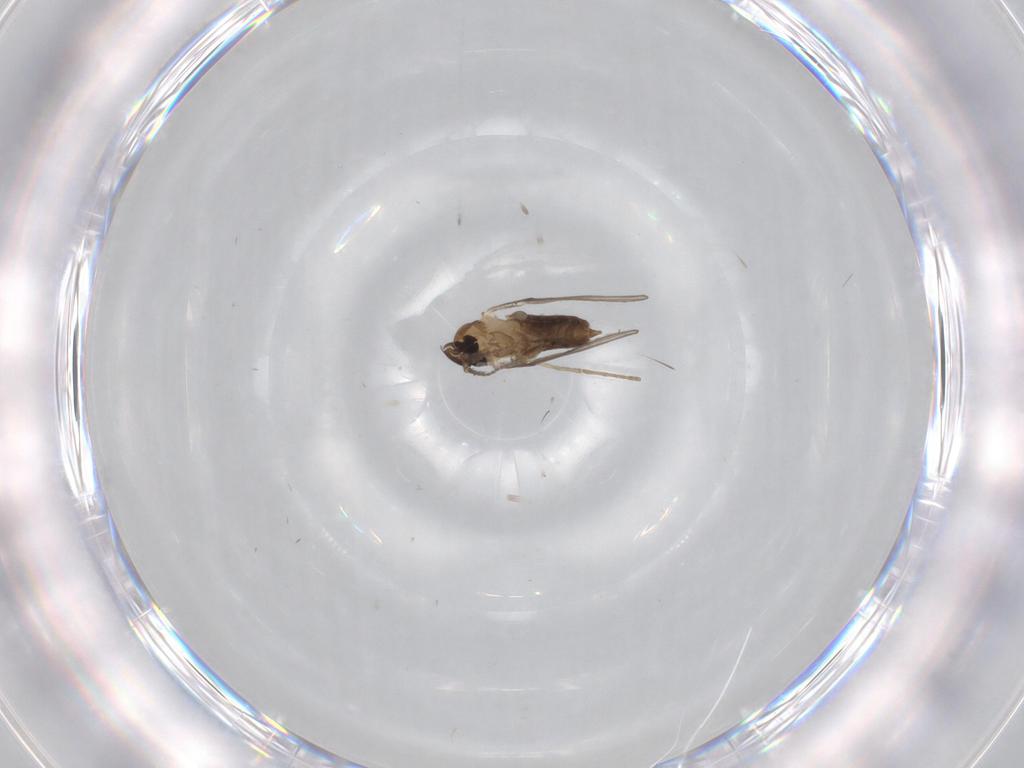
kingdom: Animalia
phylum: Arthropoda
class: Insecta
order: Diptera
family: Psychodidae
